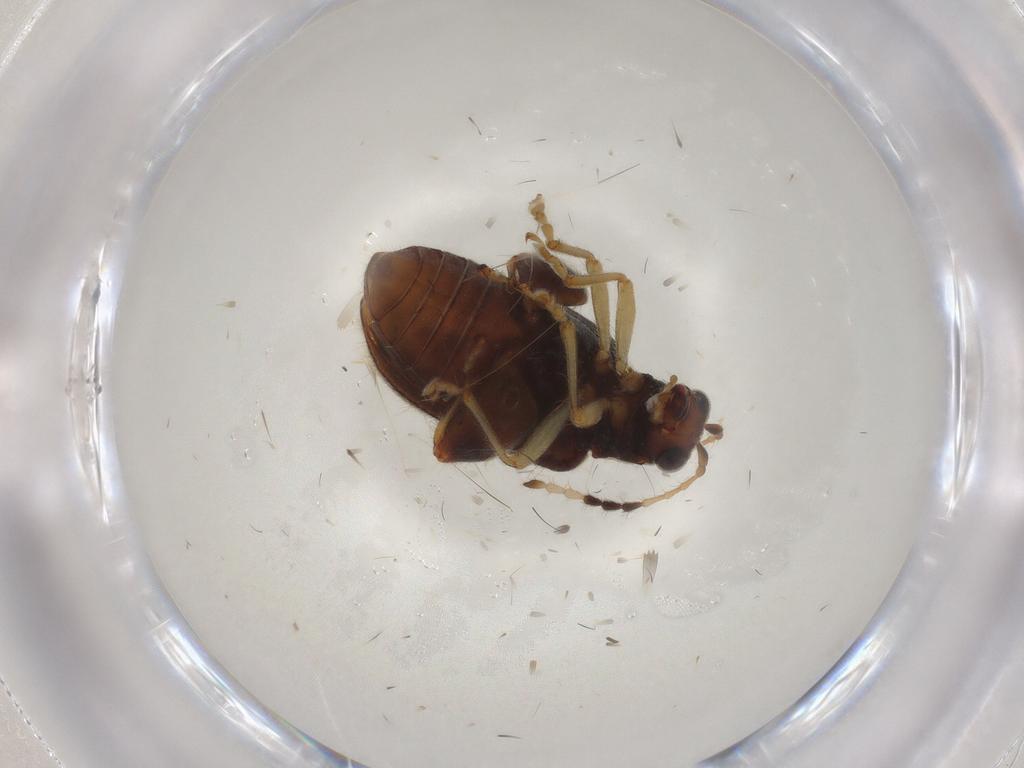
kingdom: Animalia
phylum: Arthropoda
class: Insecta
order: Coleoptera
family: Chrysomelidae
